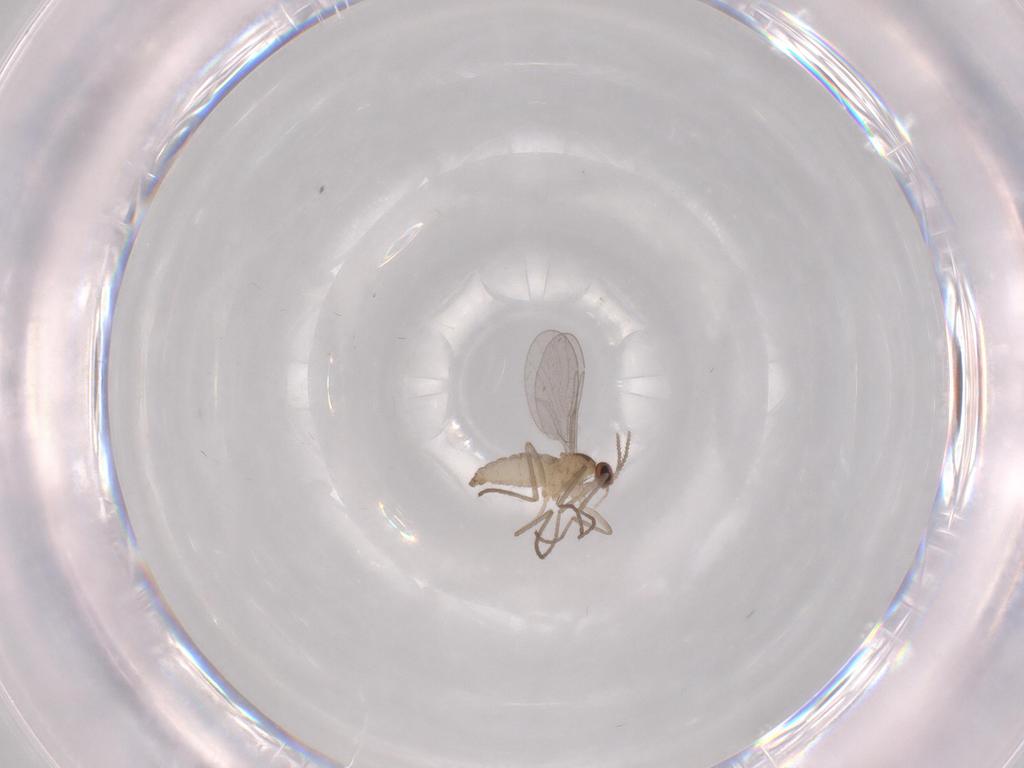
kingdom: Animalia
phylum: Arthropoda
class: Insecta
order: Diptera
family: Chironomidae
